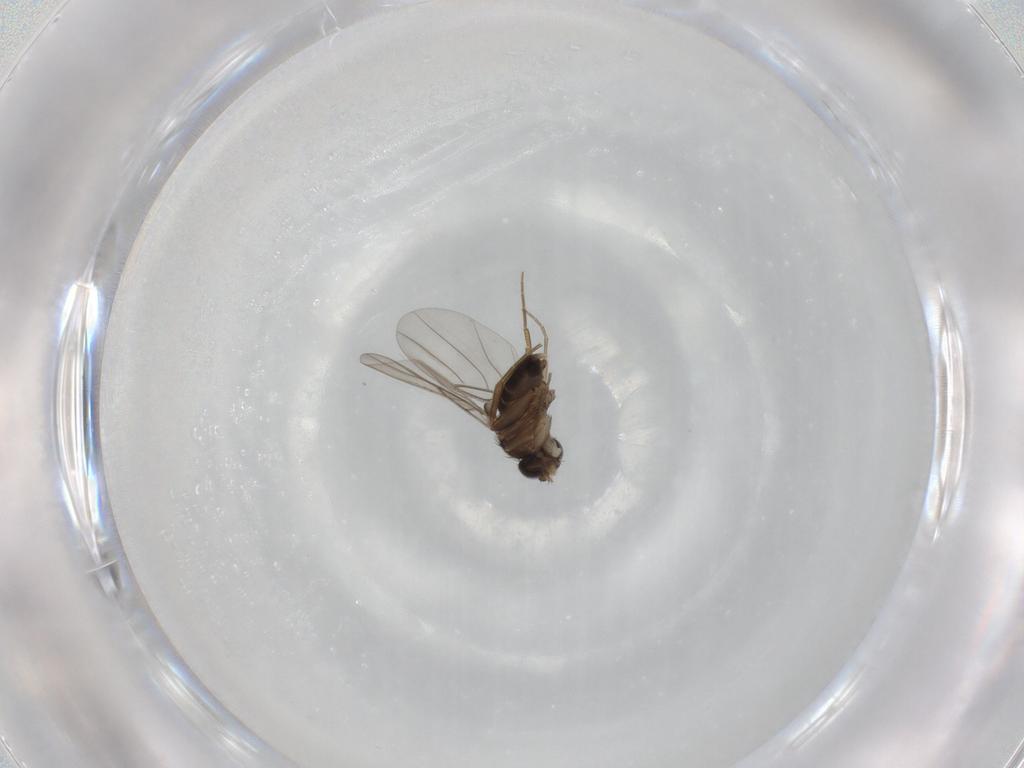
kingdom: Animalia
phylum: Arthropoda
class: Insecta
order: Diptera
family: Phoridae
